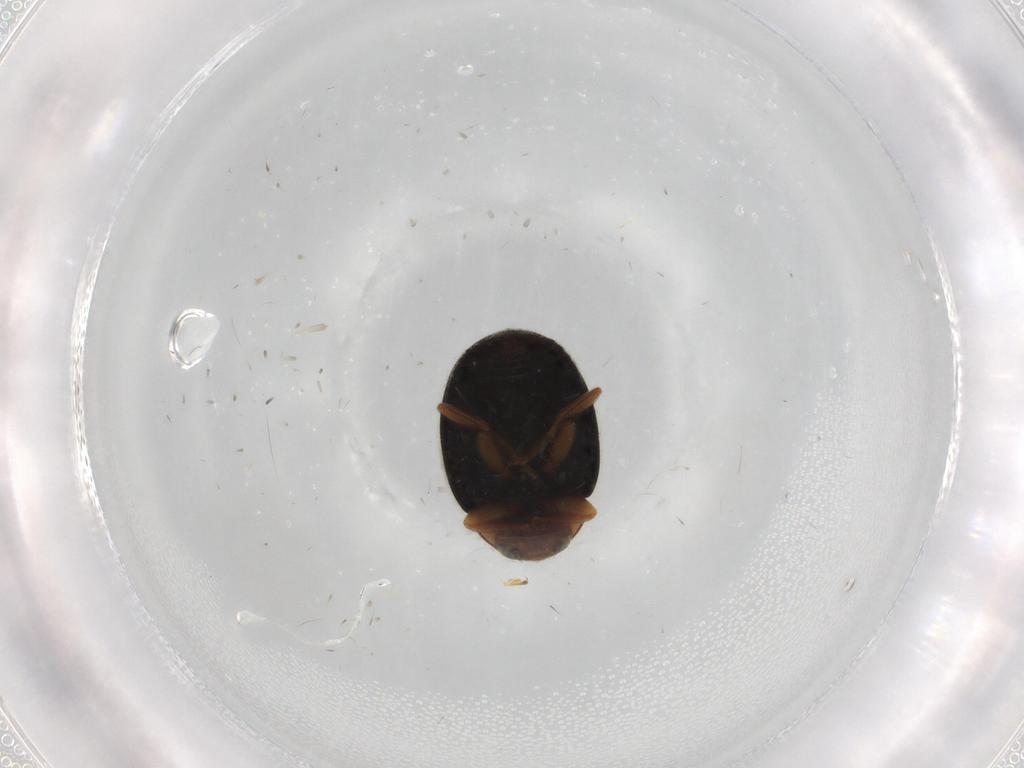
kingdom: Animalia
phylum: Arthropoda
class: Insecta
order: Coleoptera
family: Coccinellidae
